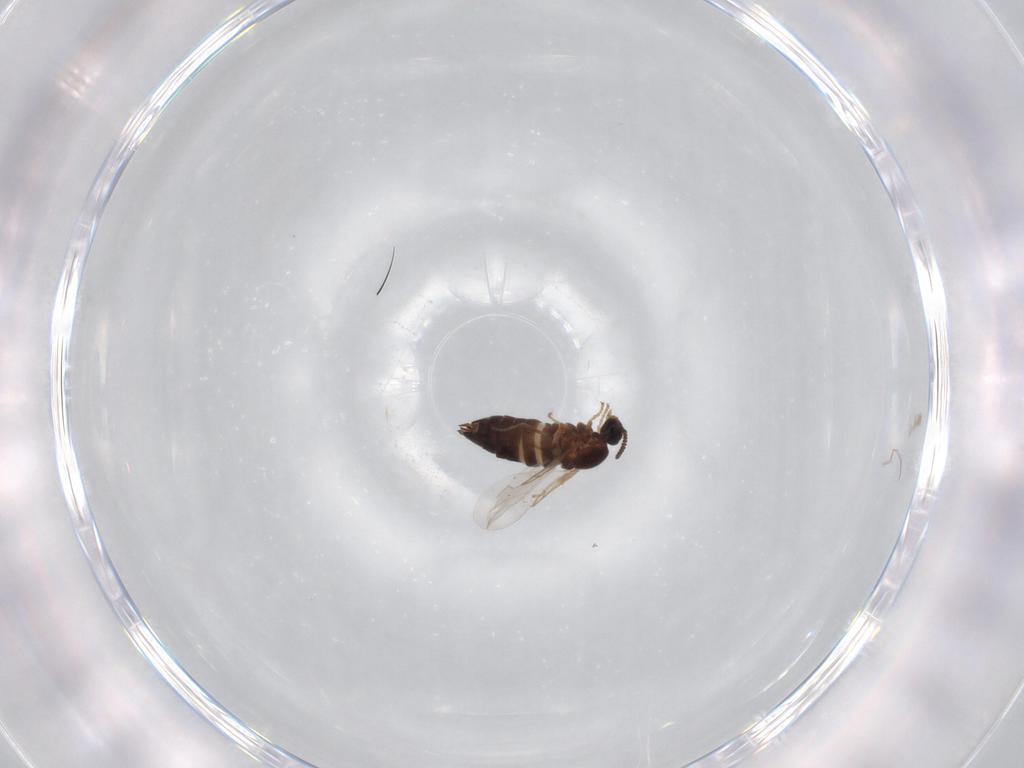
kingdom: Animalia
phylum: Arthropoda
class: Insecta
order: Diptera
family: Scatopsidae
